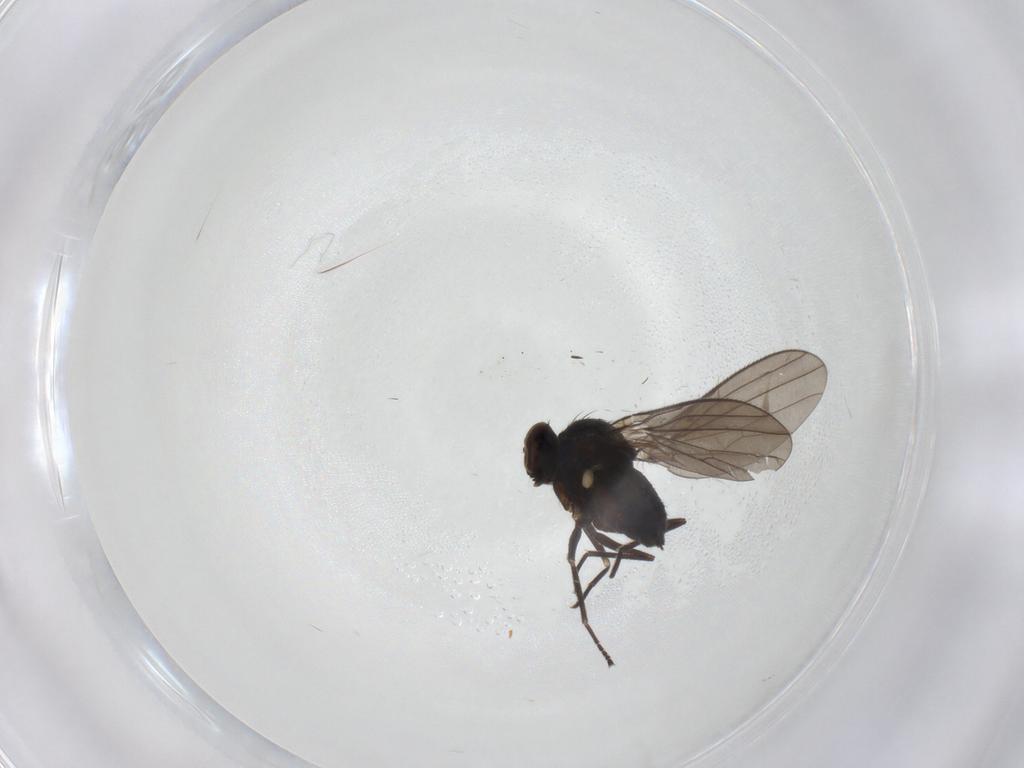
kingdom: Animalia
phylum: Arthropoda
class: Insecta
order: Diptera
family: Dolichopodidae
